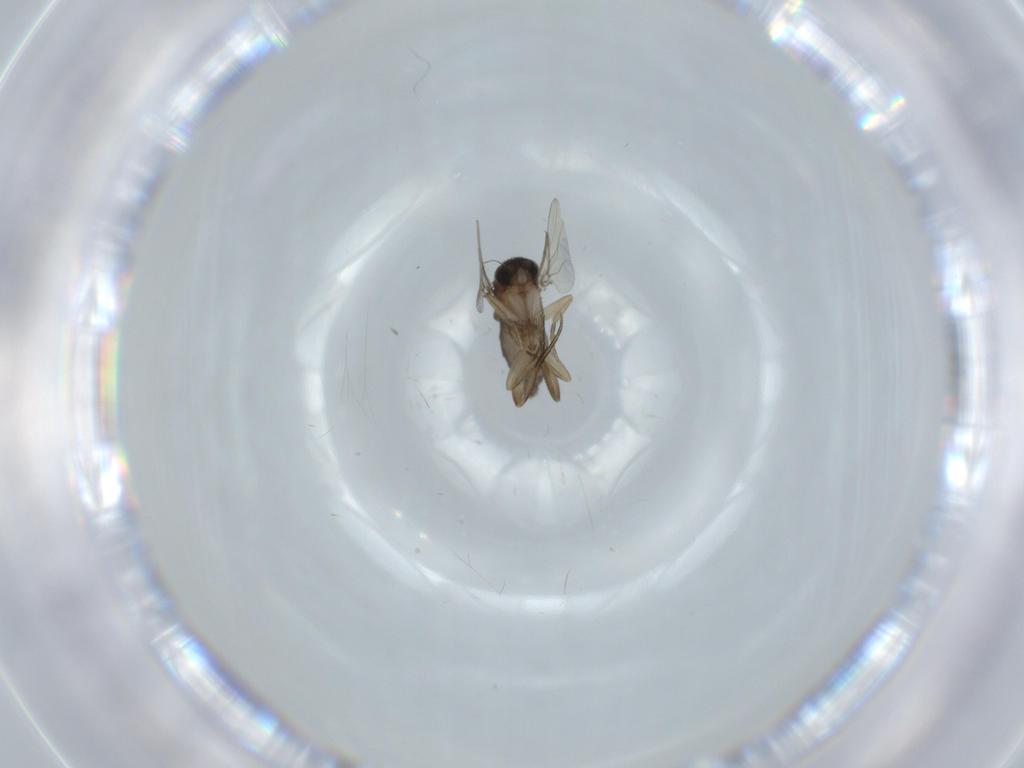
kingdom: Animalia
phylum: Arthropoda
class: Insecta
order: Diptera
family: Phoridae
